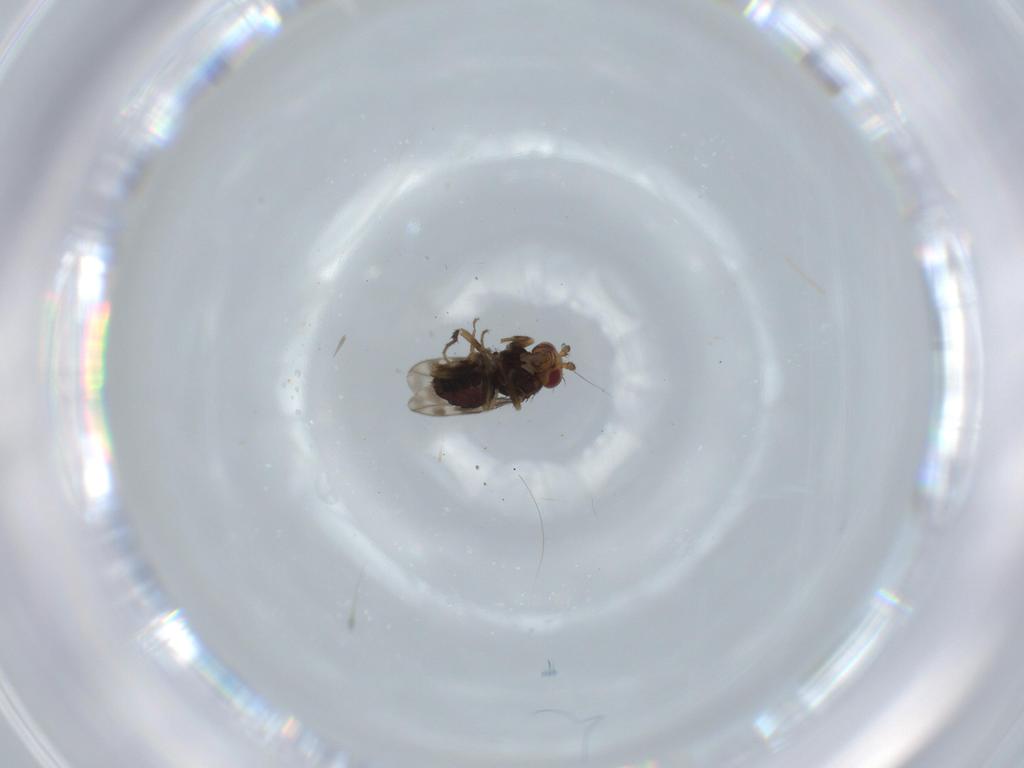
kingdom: Animalia
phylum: Arthropoda
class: Insecta
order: Diptera
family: Sphaeroceridae
